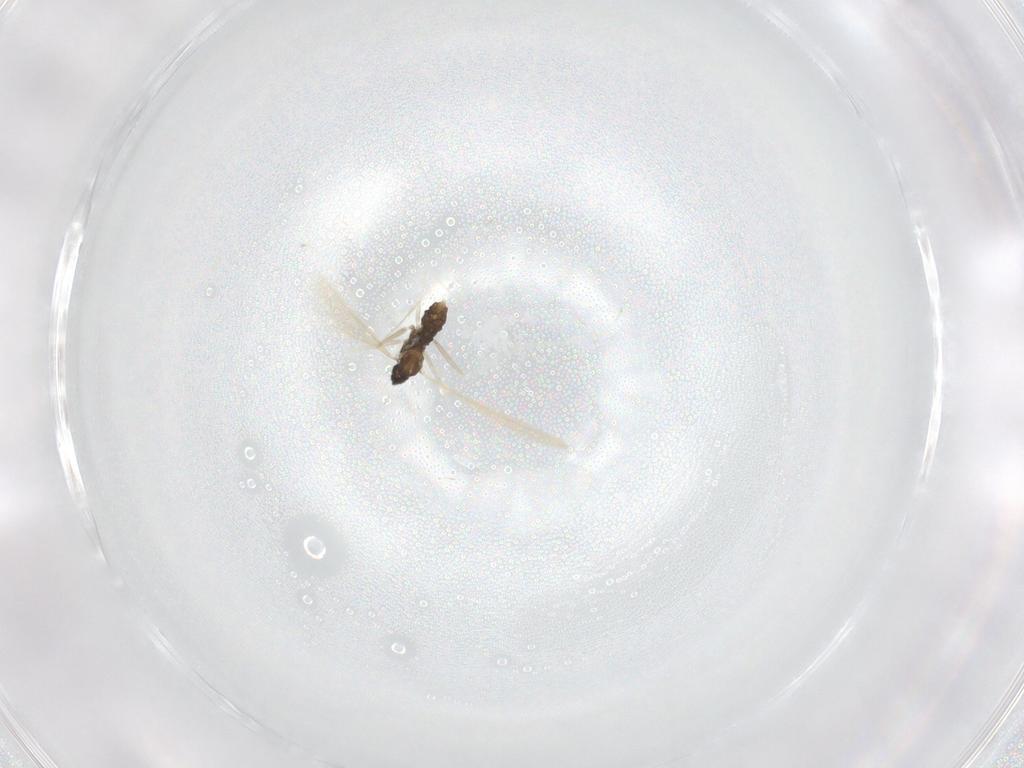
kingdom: Animalia
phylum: Arthropoda
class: Insecta
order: Diptera
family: Cecidomyiidae
